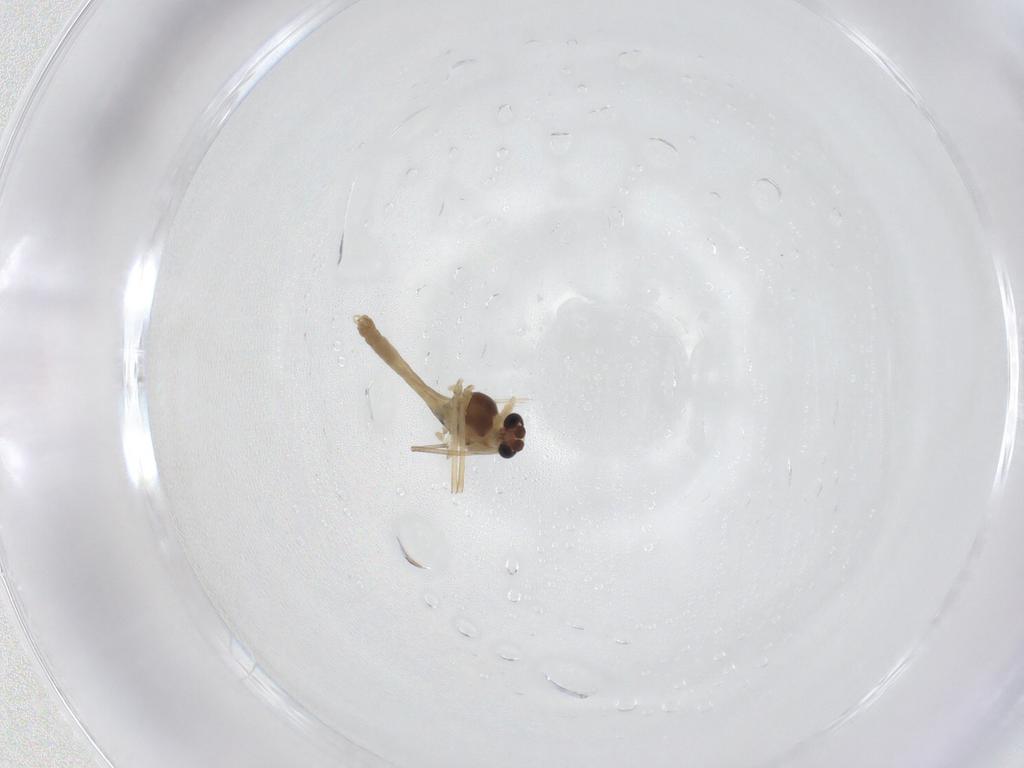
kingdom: Animalia
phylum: Arthropoda
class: Insecta
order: Diptera
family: Chironomidae
